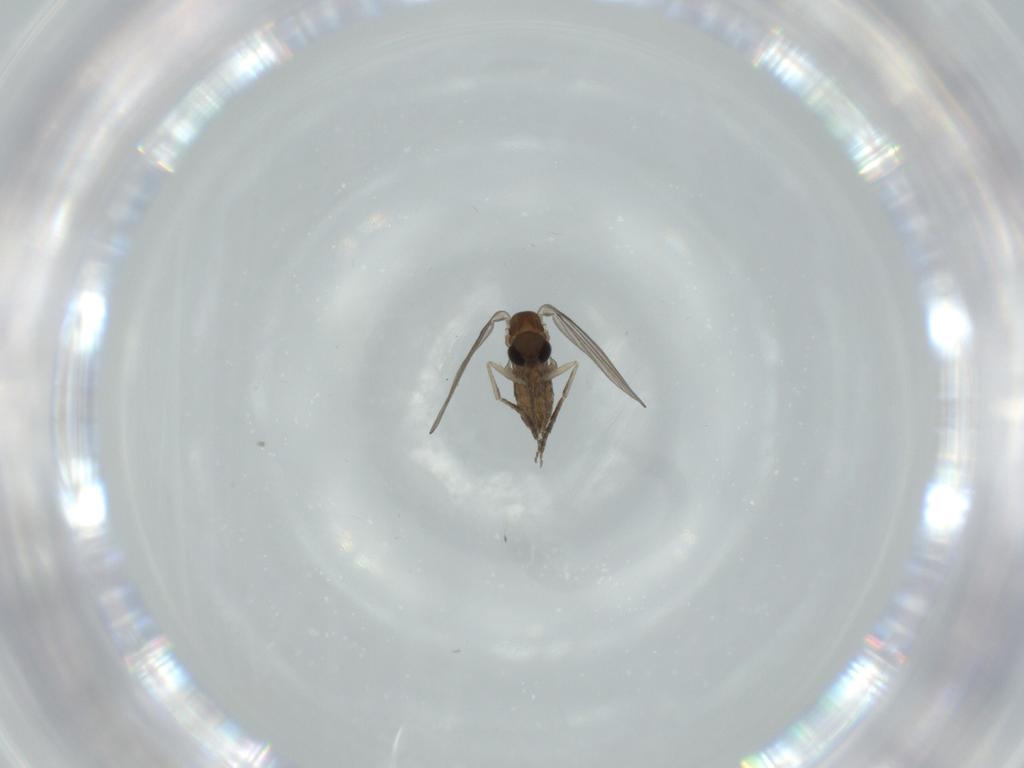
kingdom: Animalia
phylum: Arthropoda
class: Insecta
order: Diptera
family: Psychodidae
